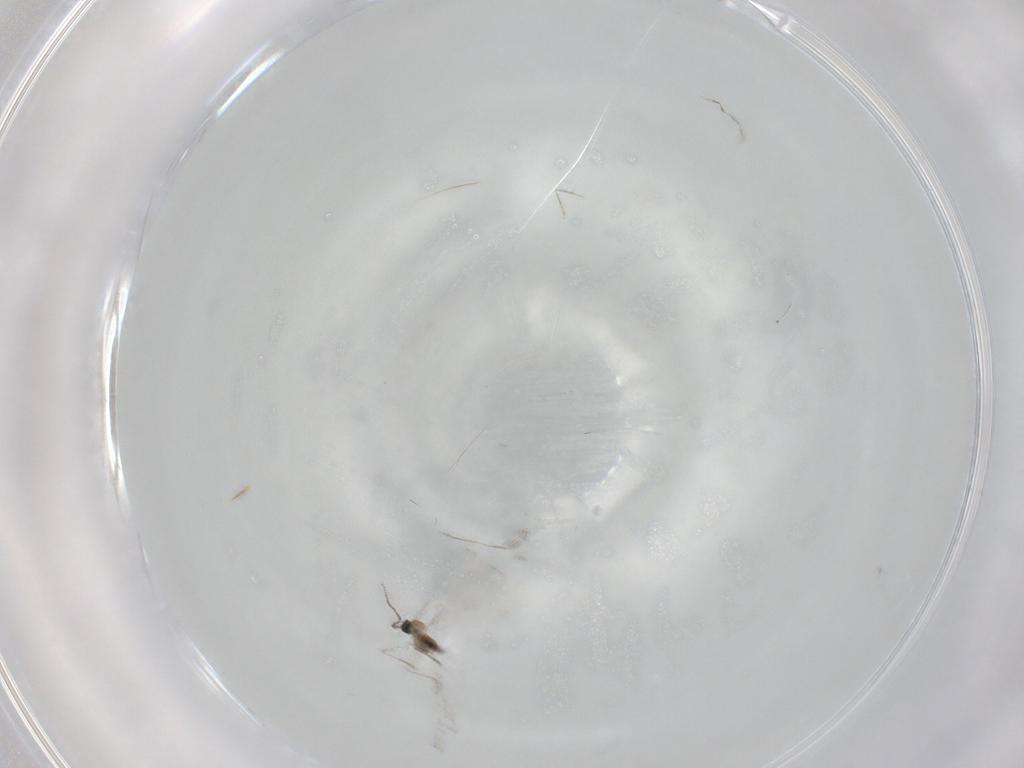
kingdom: Animalia
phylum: Arthropoda
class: Insecta
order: Diptera
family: Cecidomyiidae
